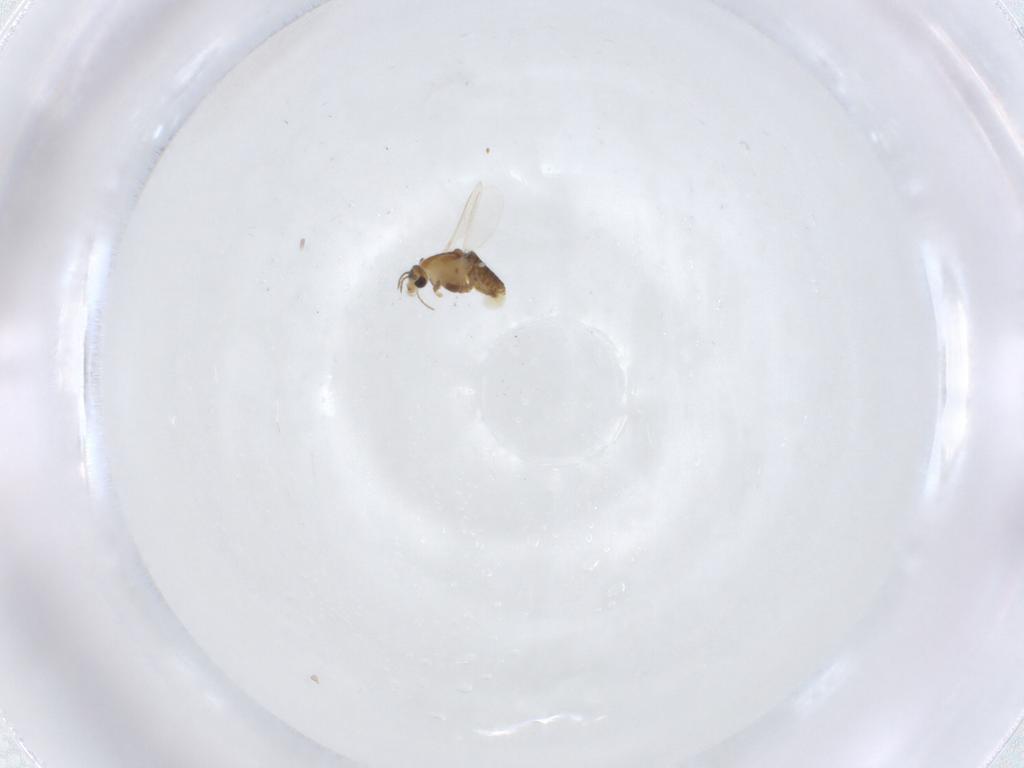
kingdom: Animalia
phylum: Arthropoda
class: Insecta
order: Diptera
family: Chironomidae
